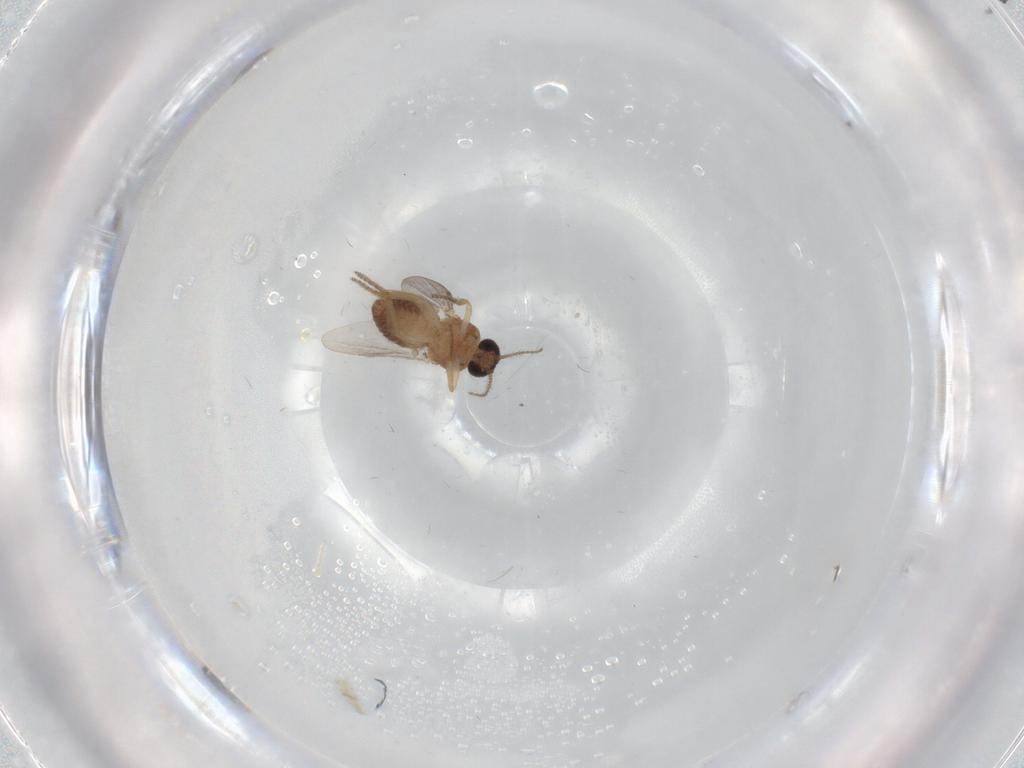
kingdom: Animalia
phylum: Arthropoda
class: Insecta
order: Diptera
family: Ceratopogonidae
